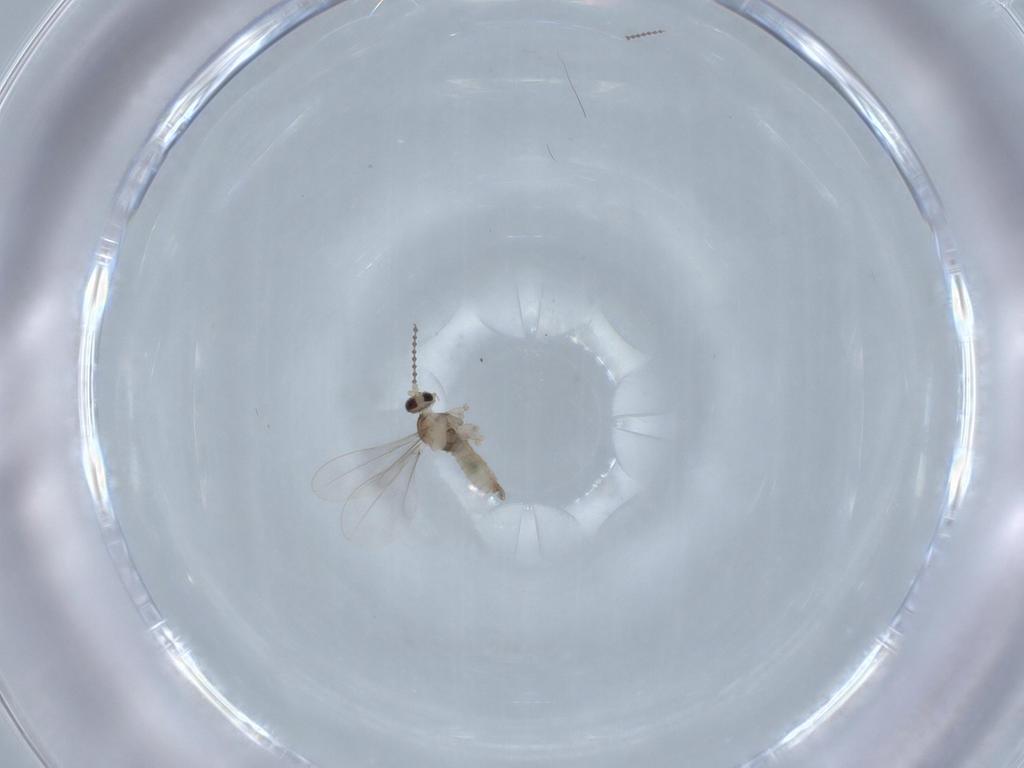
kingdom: Animalia
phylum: Arthropoda
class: Insecta
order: Diptera
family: Cecidomyiidae
